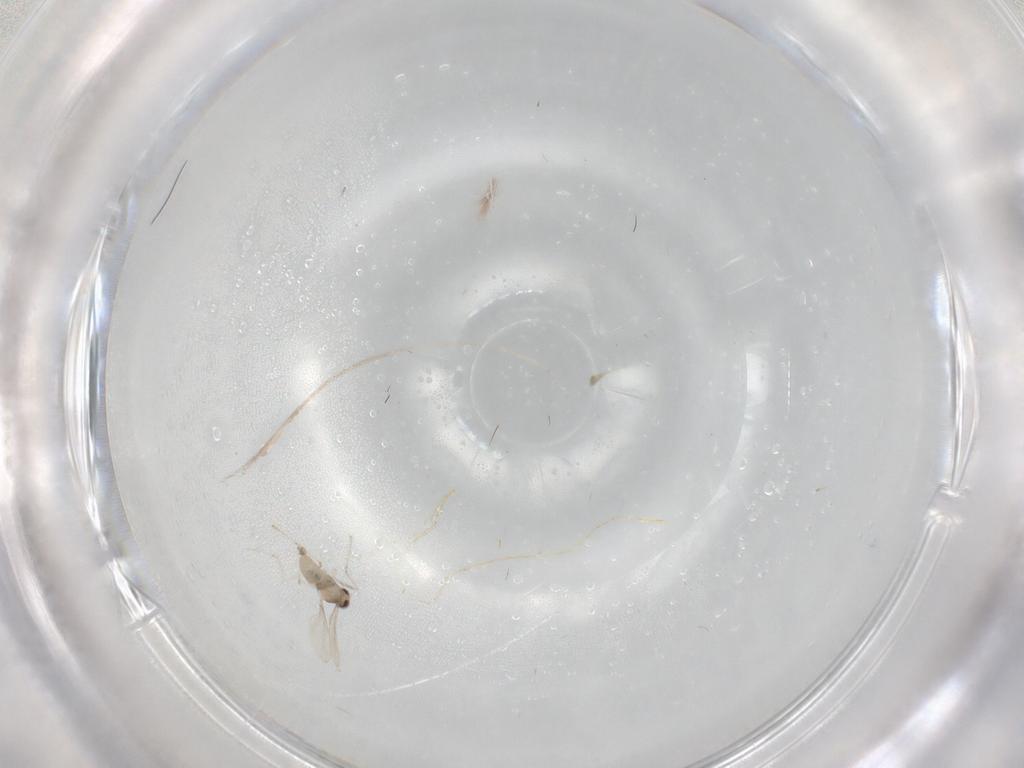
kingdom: Animalia
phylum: Arthropoda
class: Insecta
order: Diptera
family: Cecidomyiidae
